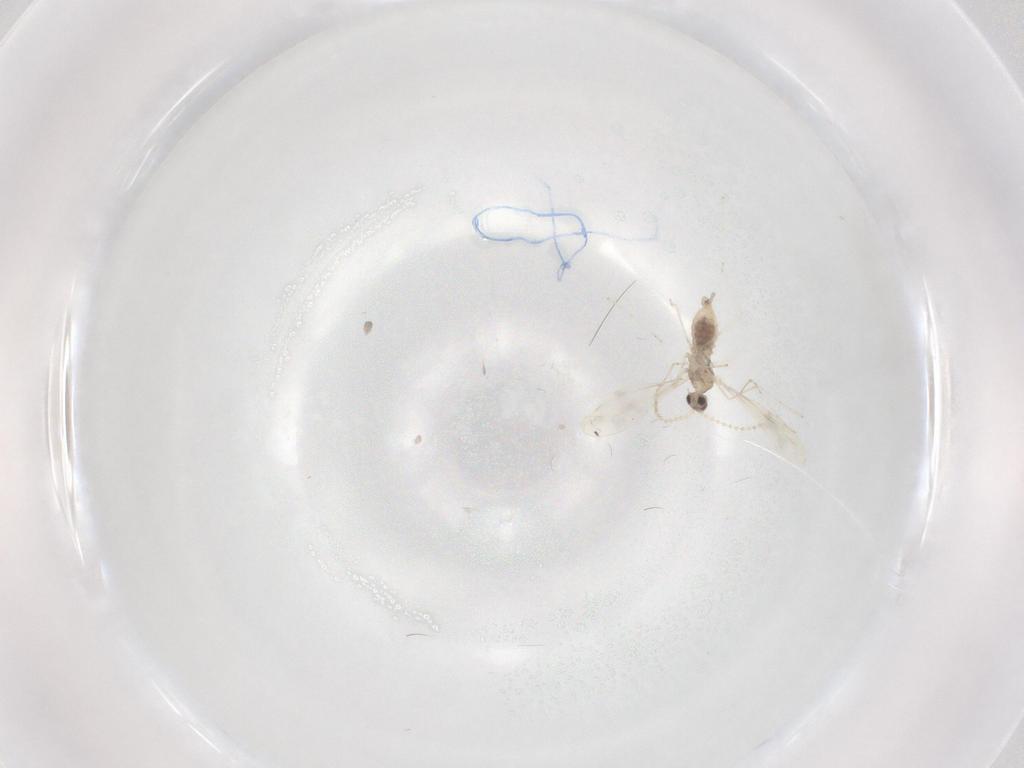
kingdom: Animalia
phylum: Arthropoda
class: Insecta
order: Diptera
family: Cecidomyiidae
